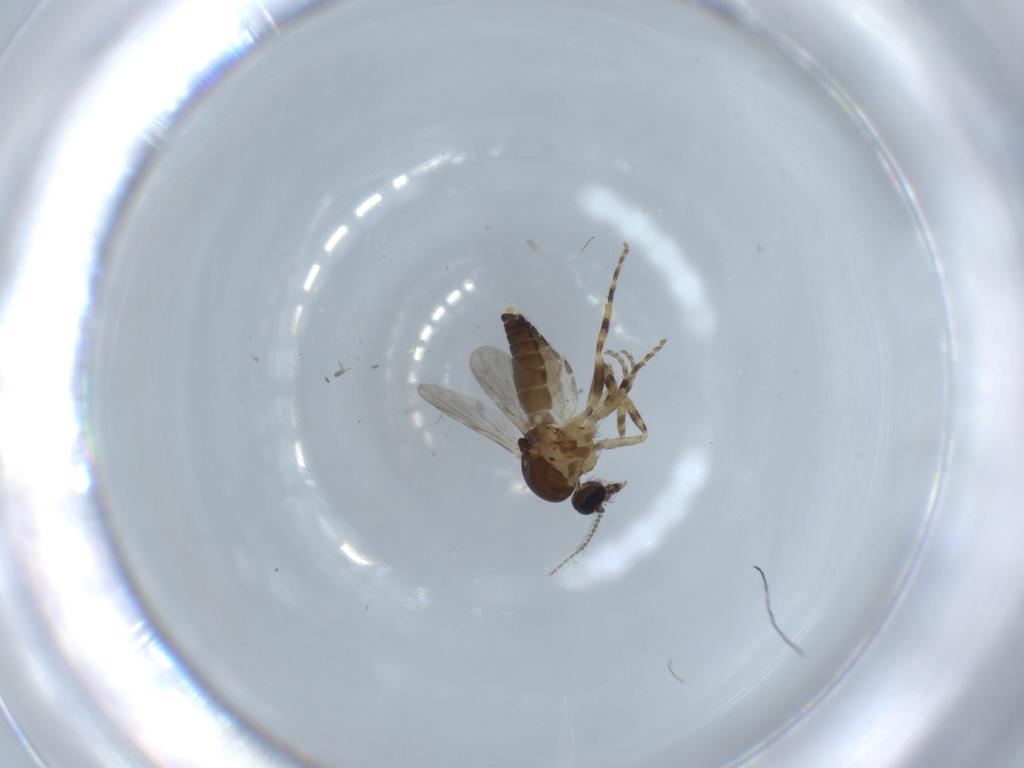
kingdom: Animalia
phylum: Arthropoda
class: Insecta
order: Diptera
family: Ceratopogonidae
